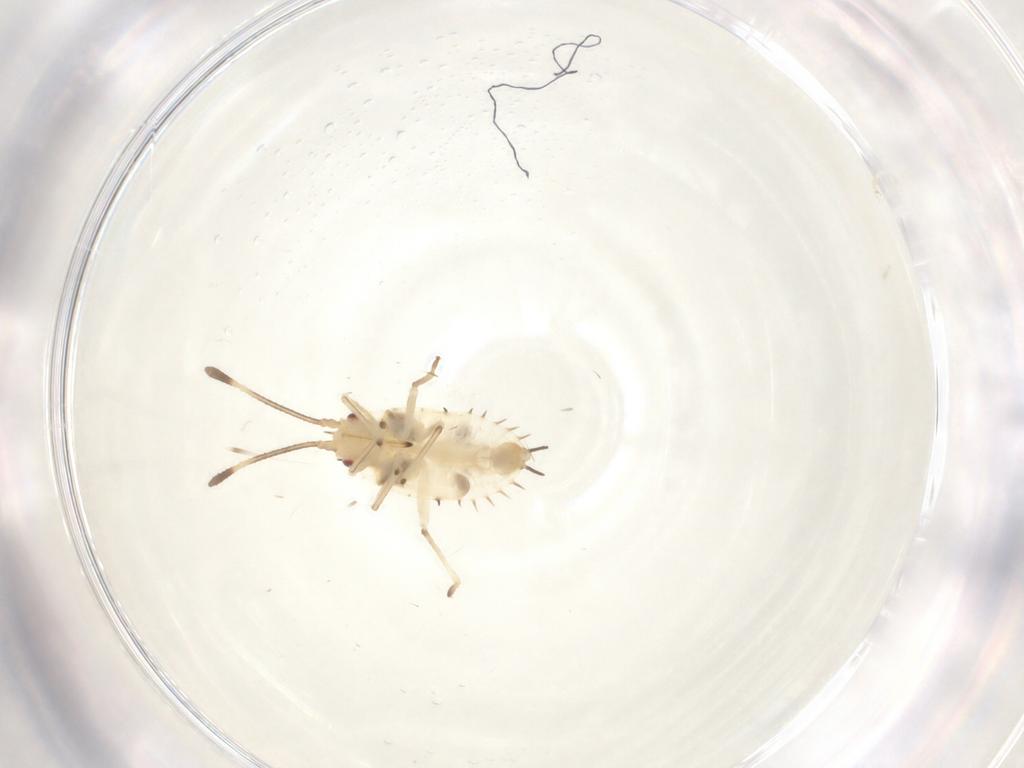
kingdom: Animalia
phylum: Arthropoda
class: Insecta
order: Hemiptera
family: Tingidae
